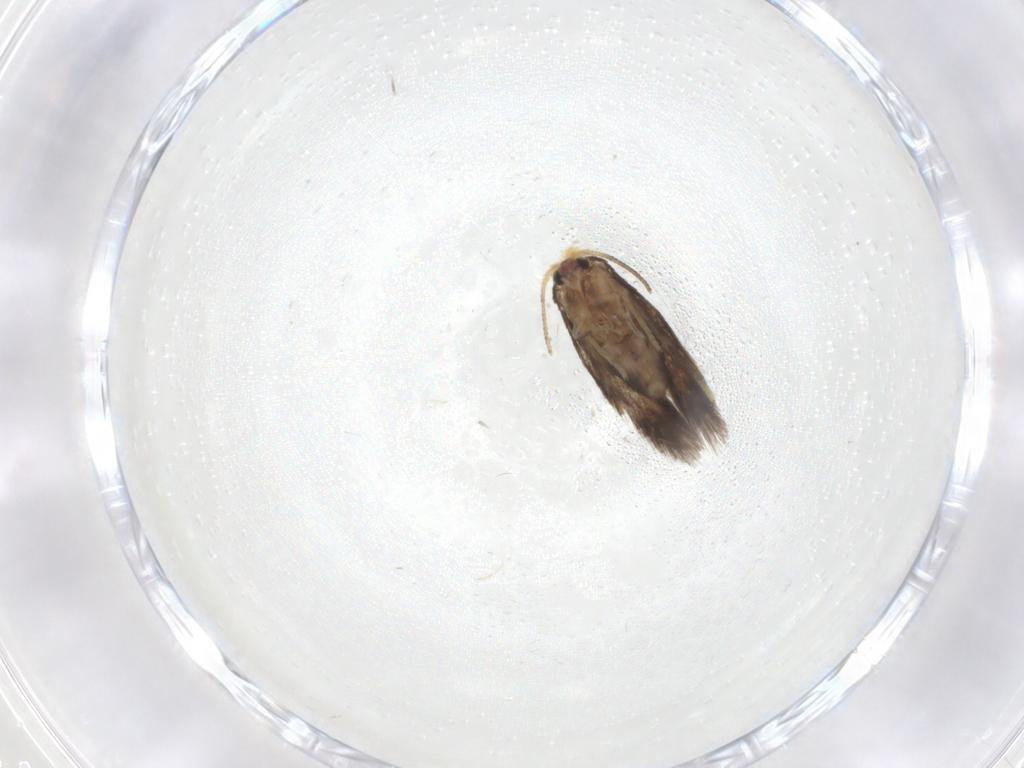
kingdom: Animalia
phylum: Arthropoda
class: Insecta
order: Lepidoptera
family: Nepticulidae
